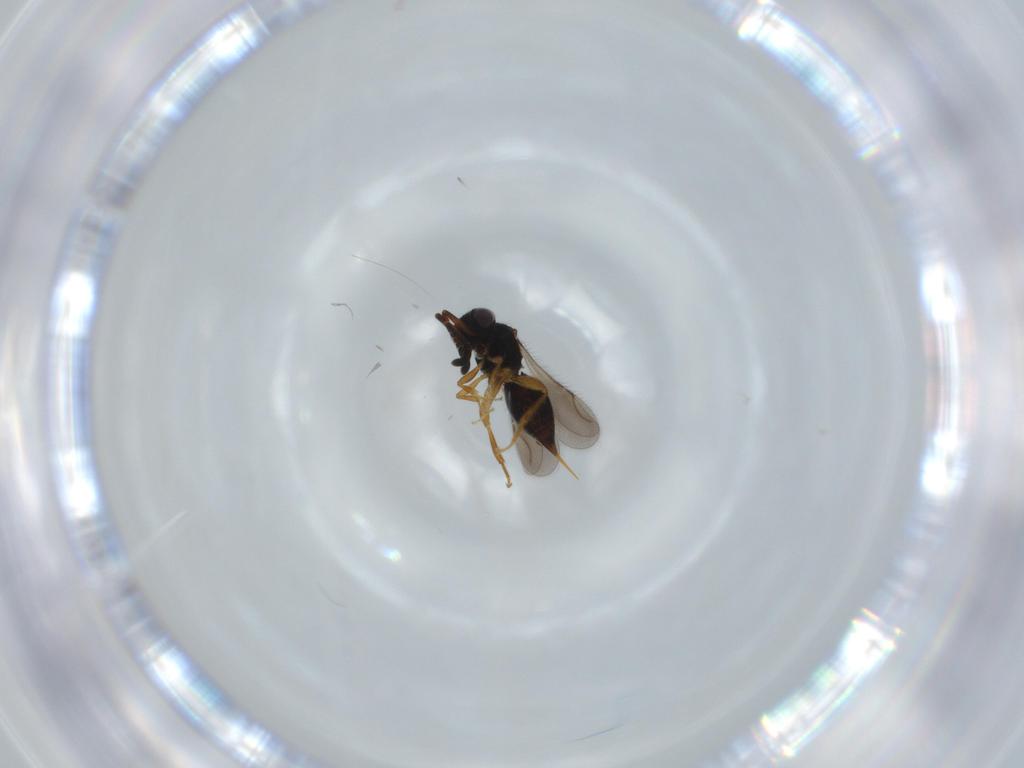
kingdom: Animalia
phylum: Arthropoda
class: Insecta
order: Hymenoptera
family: Ceraphronidae
